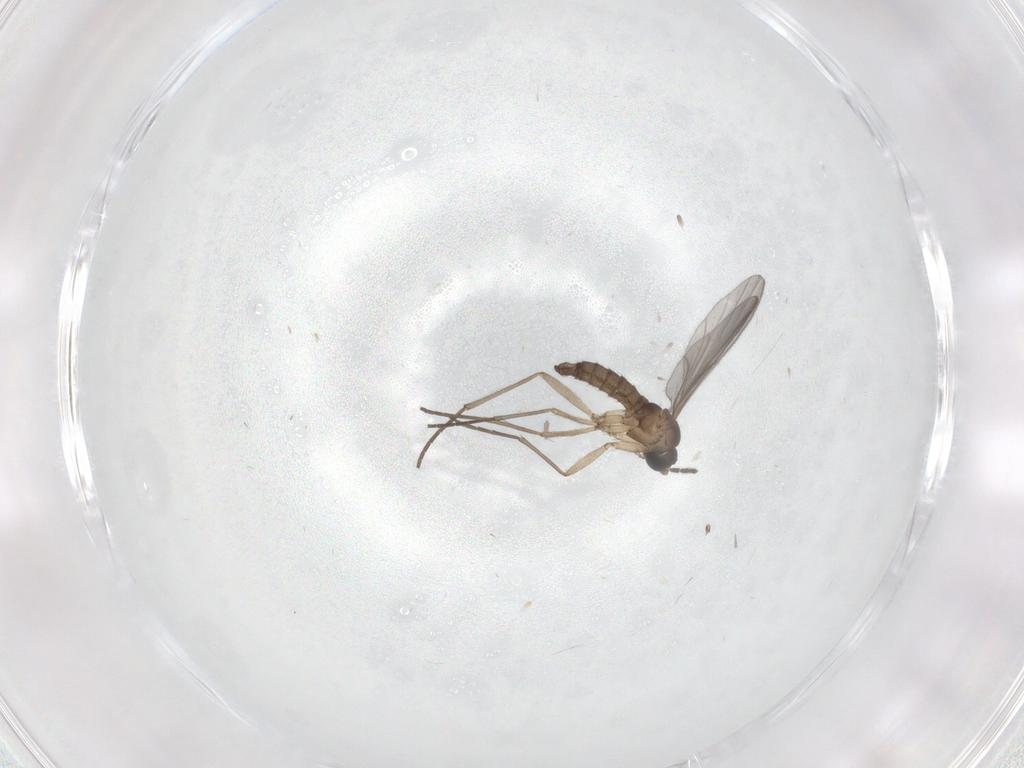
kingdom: Animalia
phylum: Arthropoda
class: Insecta
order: Diptera
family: Sciaridae
